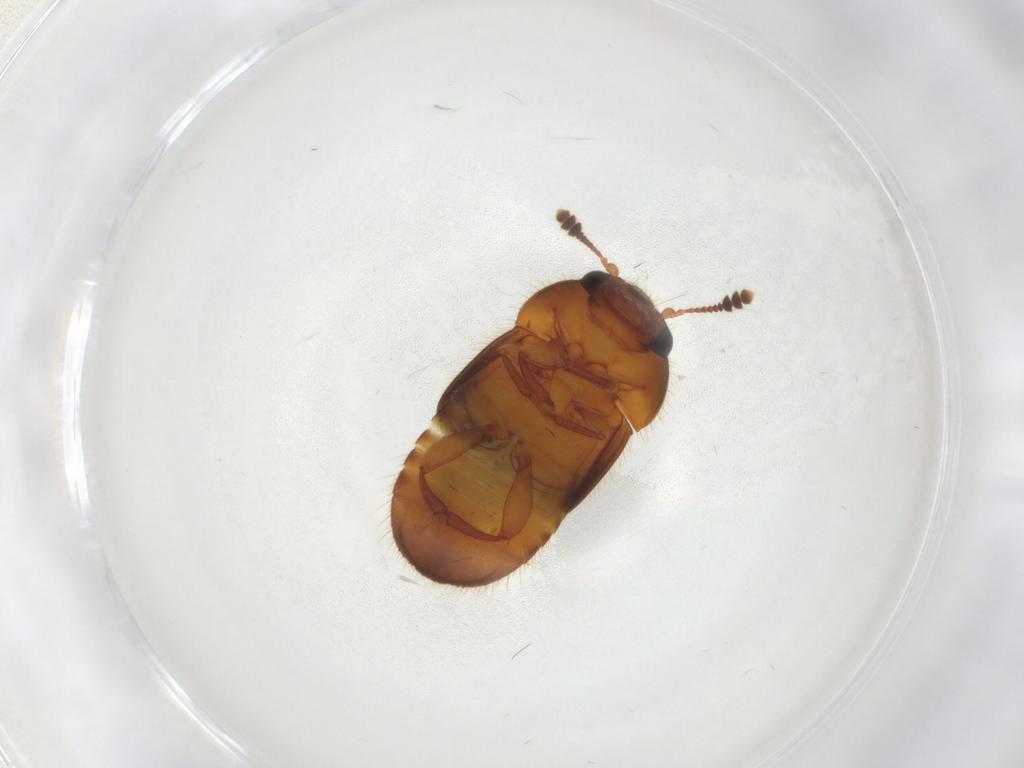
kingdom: Animalia
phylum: Arthropoda
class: Insecta
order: Coleoptera
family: Nitidulidae
